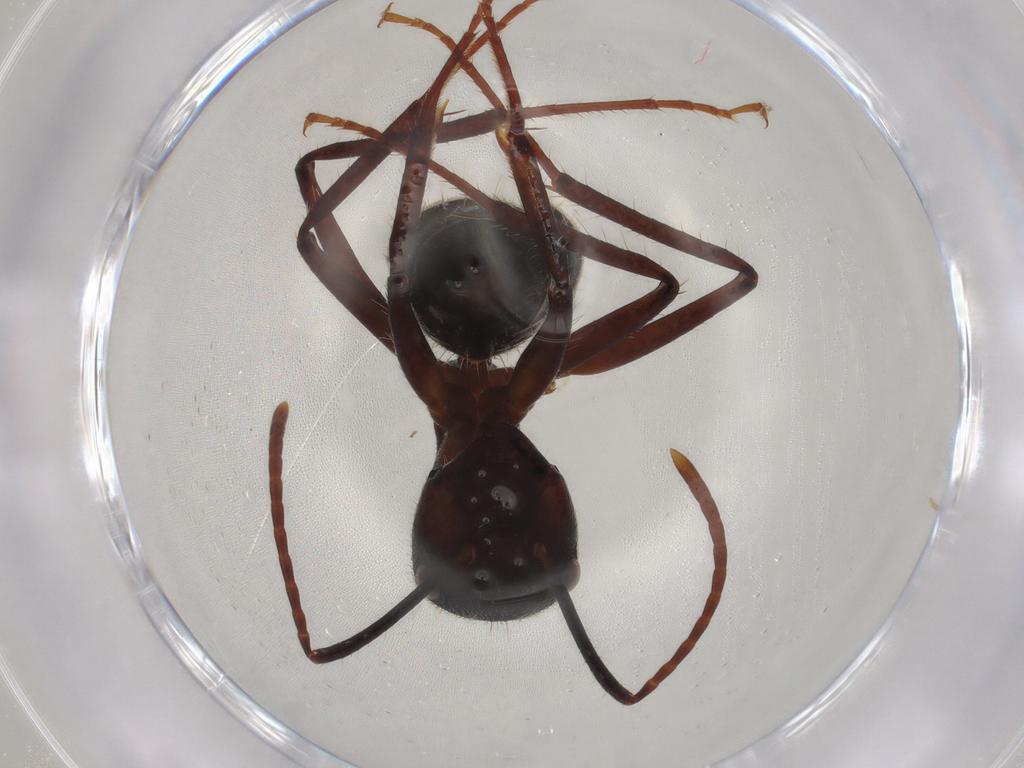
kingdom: Animalia
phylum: Arthropoda
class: Insecta
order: Hymenoptera
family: Formicidae
